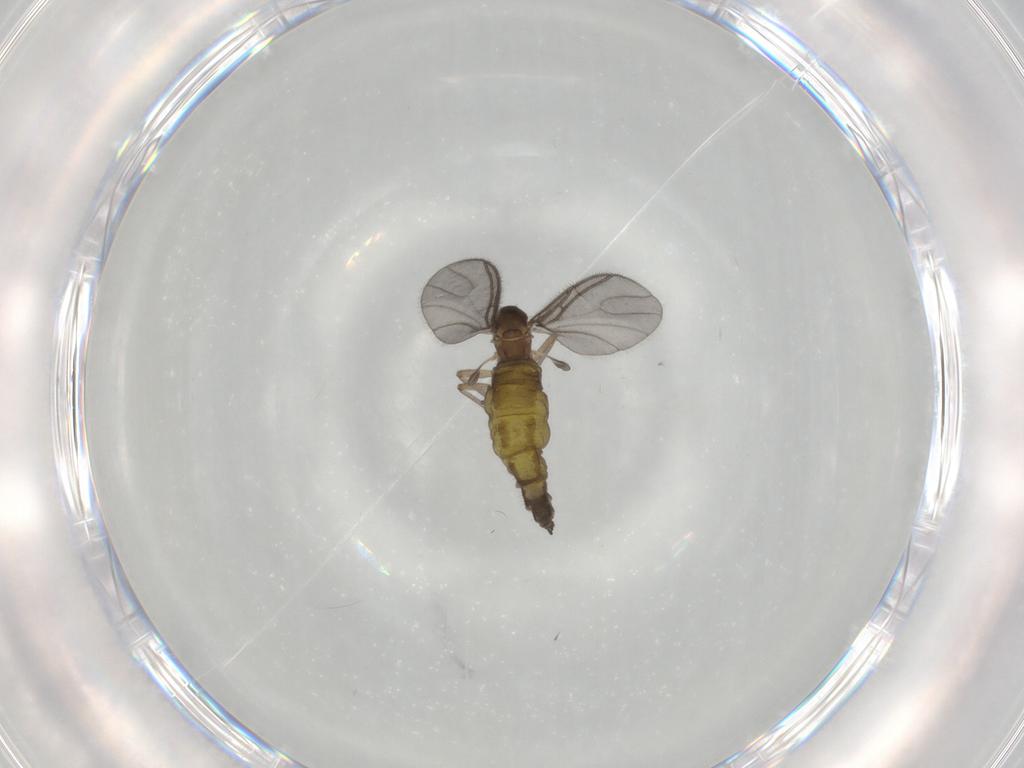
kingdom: Animalia
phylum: Arthropoda
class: Insecta
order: Diptera
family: Sciaridae
